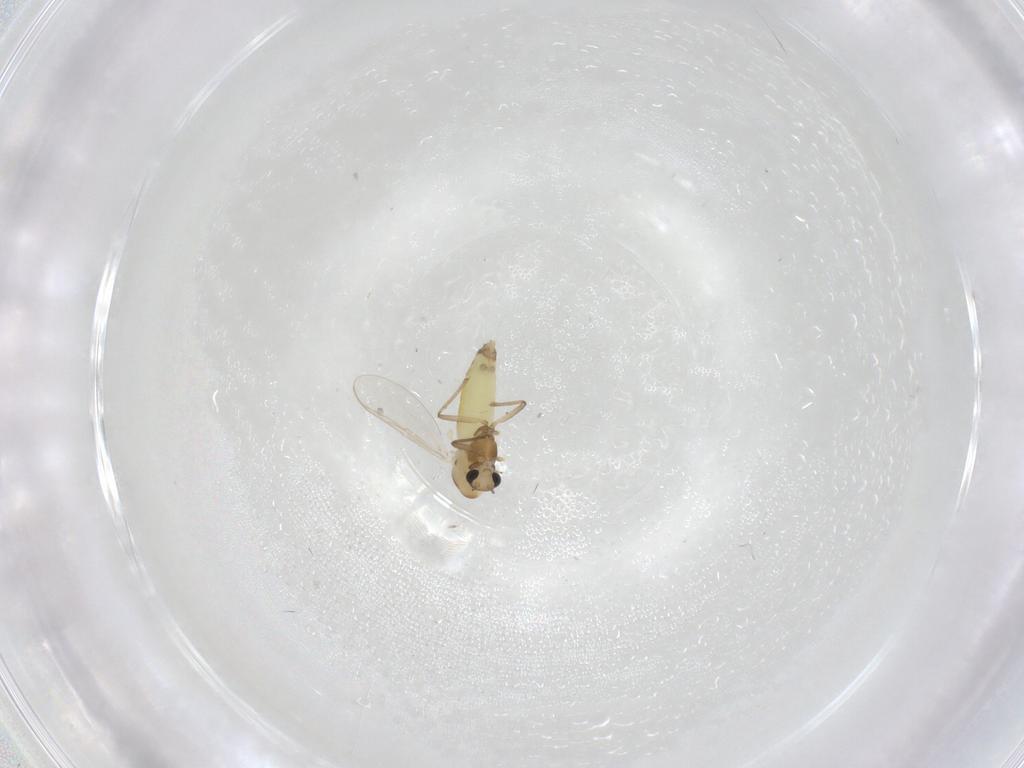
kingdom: Animalia
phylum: Arthropoda
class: Insecta
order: Diptera
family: Chironomidae
